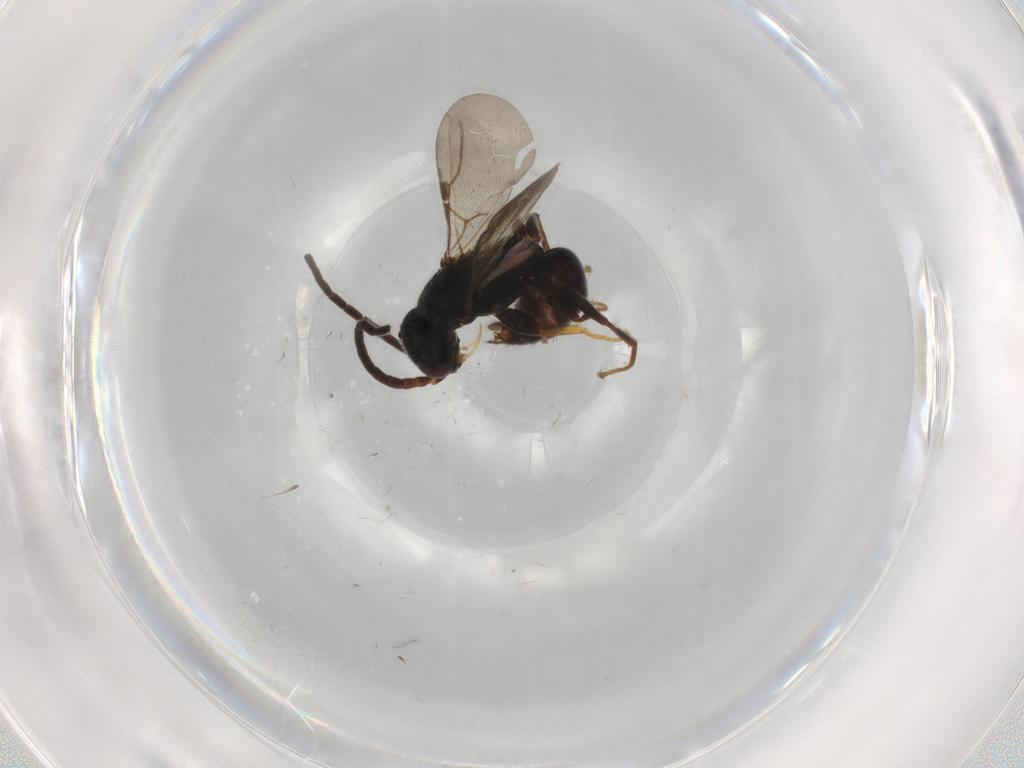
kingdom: Animalia
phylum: Arthropoda
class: Insecta
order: Hymenoptera
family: Bethylidae
